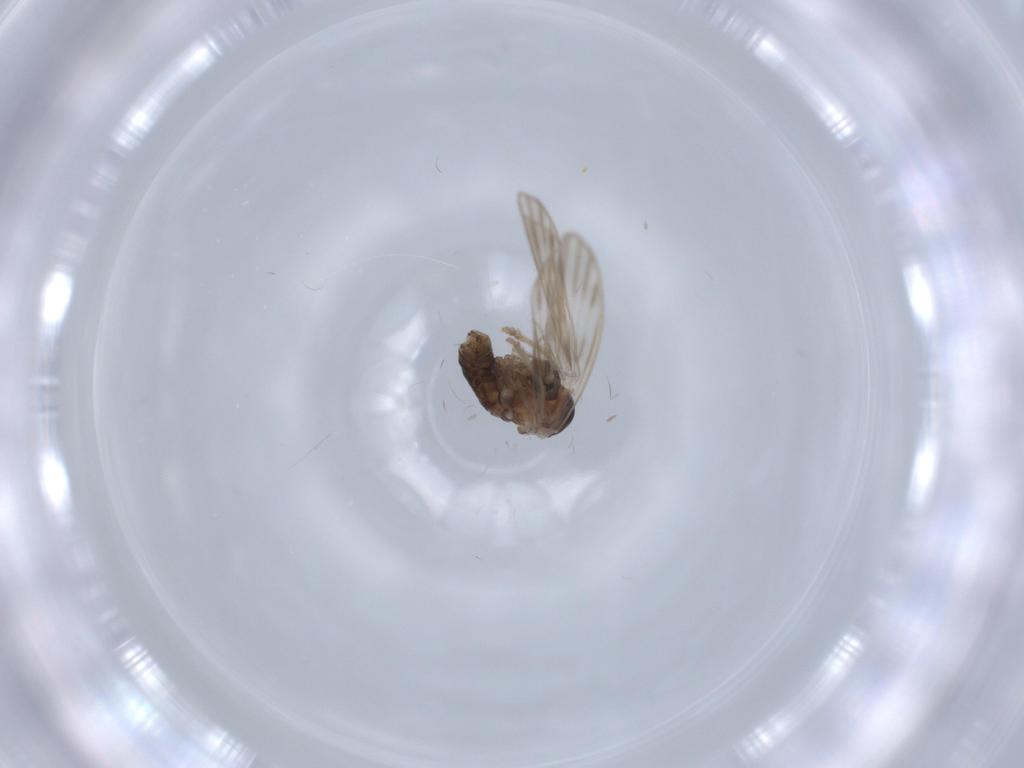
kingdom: Animalia
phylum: Arthropoda
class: Insecta
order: Diptera
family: Psychodidae
